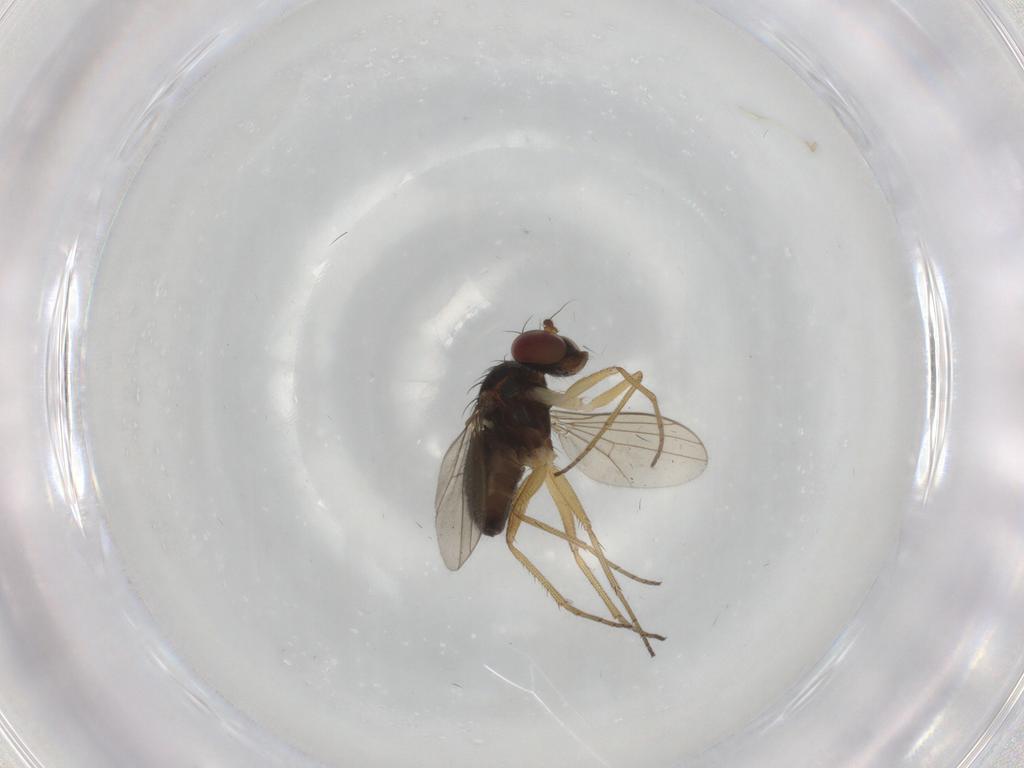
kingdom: Animalia
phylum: Arthropoda
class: Insecta
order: Diptera
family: Dolichopodidae
